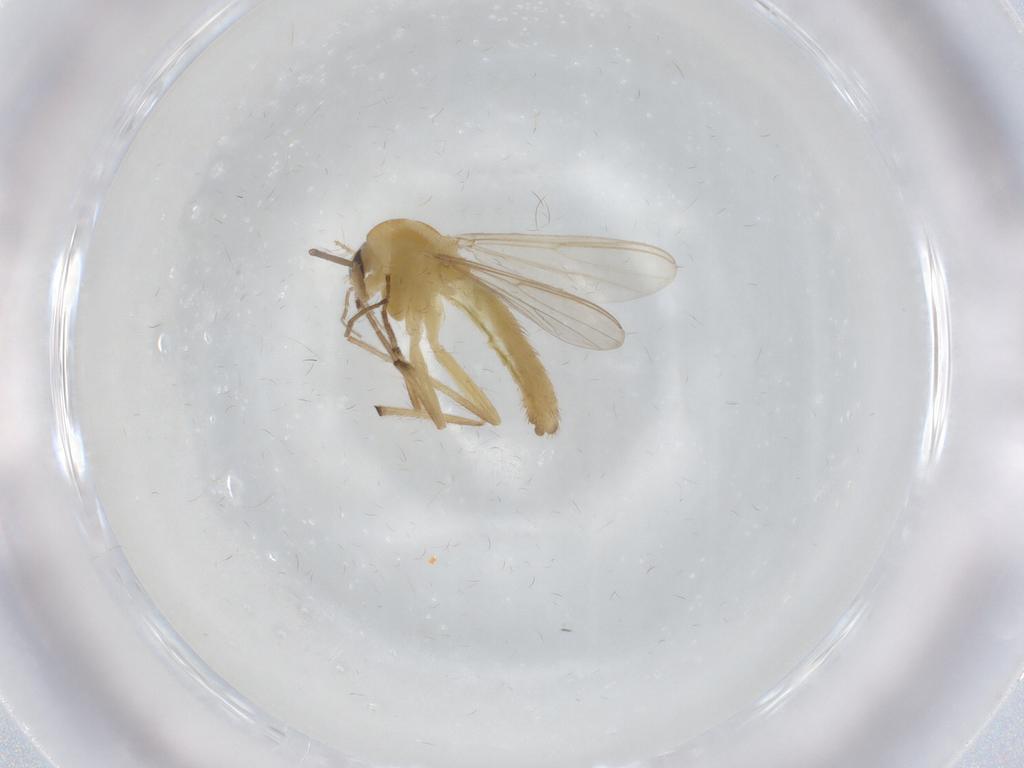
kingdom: Animalia
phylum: Arthropoda
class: Insecta
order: Diptera
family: Chironomidae
